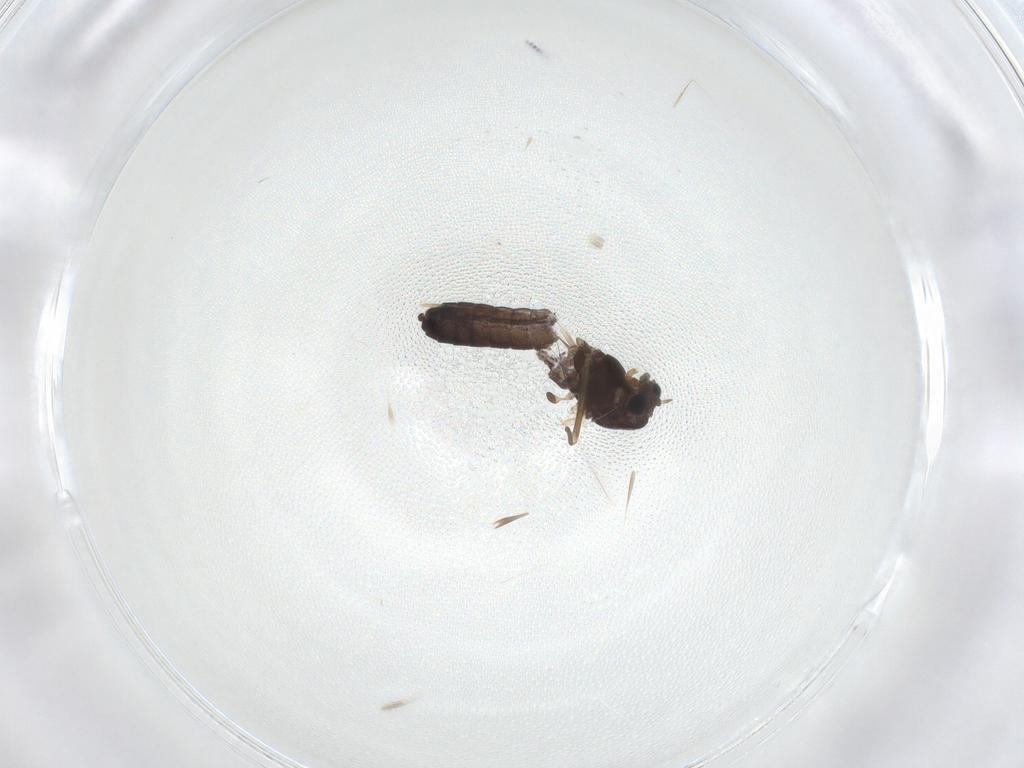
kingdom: Animalia
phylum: Arthropoda
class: Insecta
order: Diptera
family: Chironomidae
